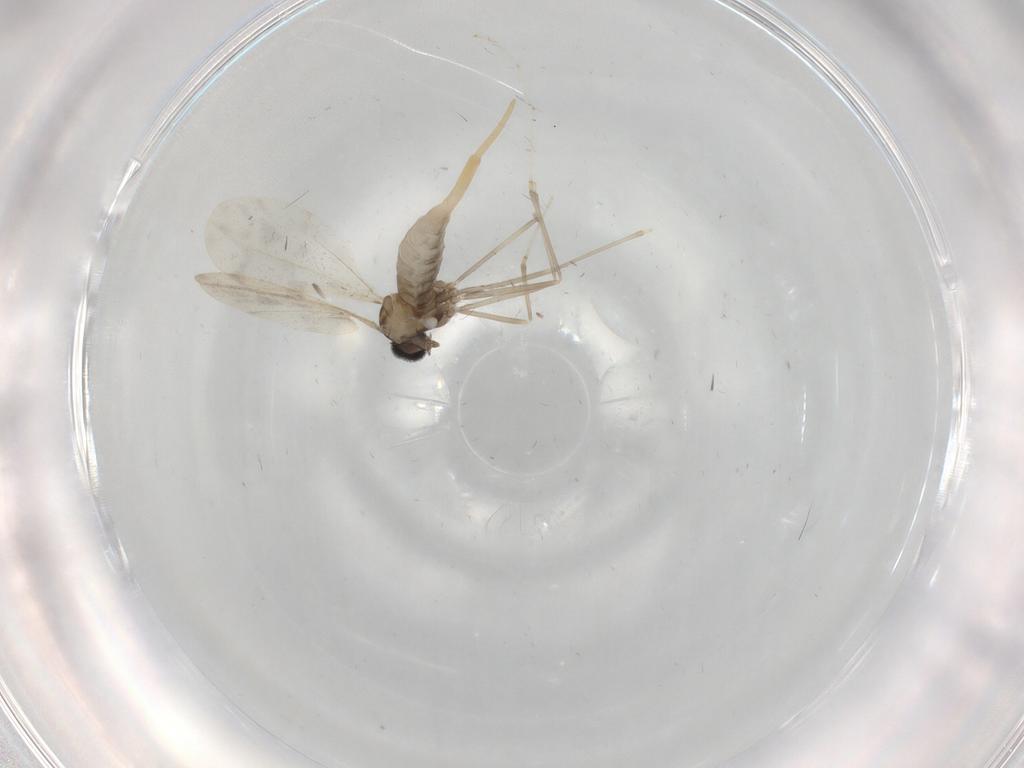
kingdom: Animalia
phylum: Arthropoda
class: Insecta
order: Diptera
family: Cecidomyiidae
